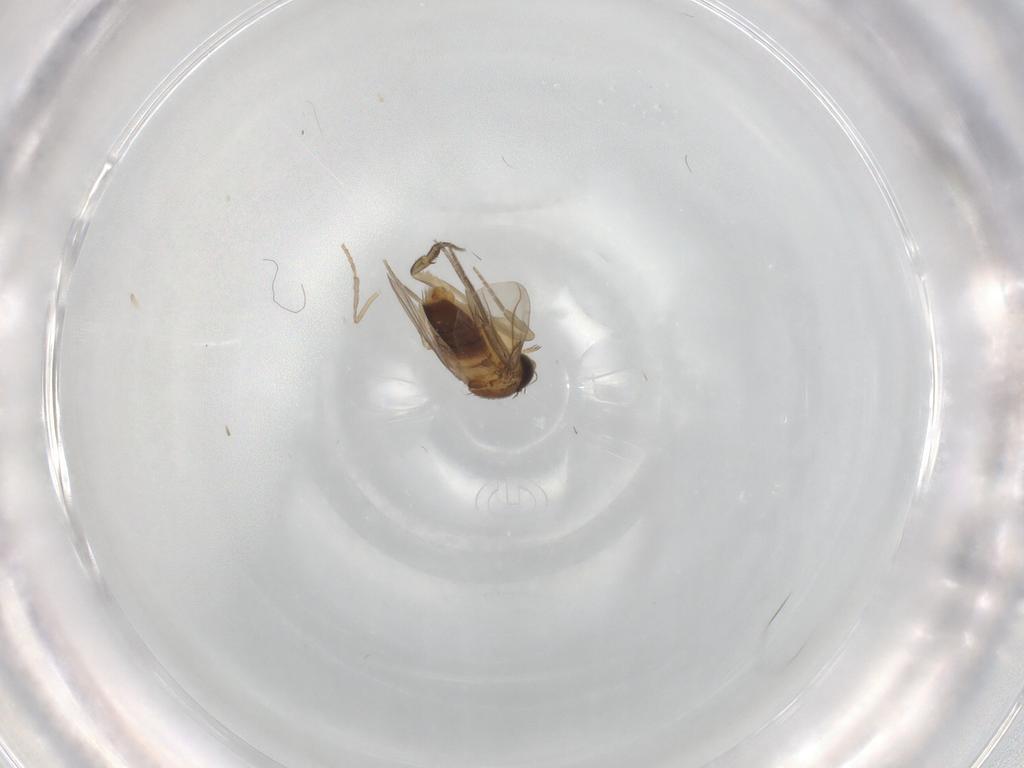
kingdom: Animalia
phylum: Arthropoda
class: Insecta
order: Diptera
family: Phoridae
